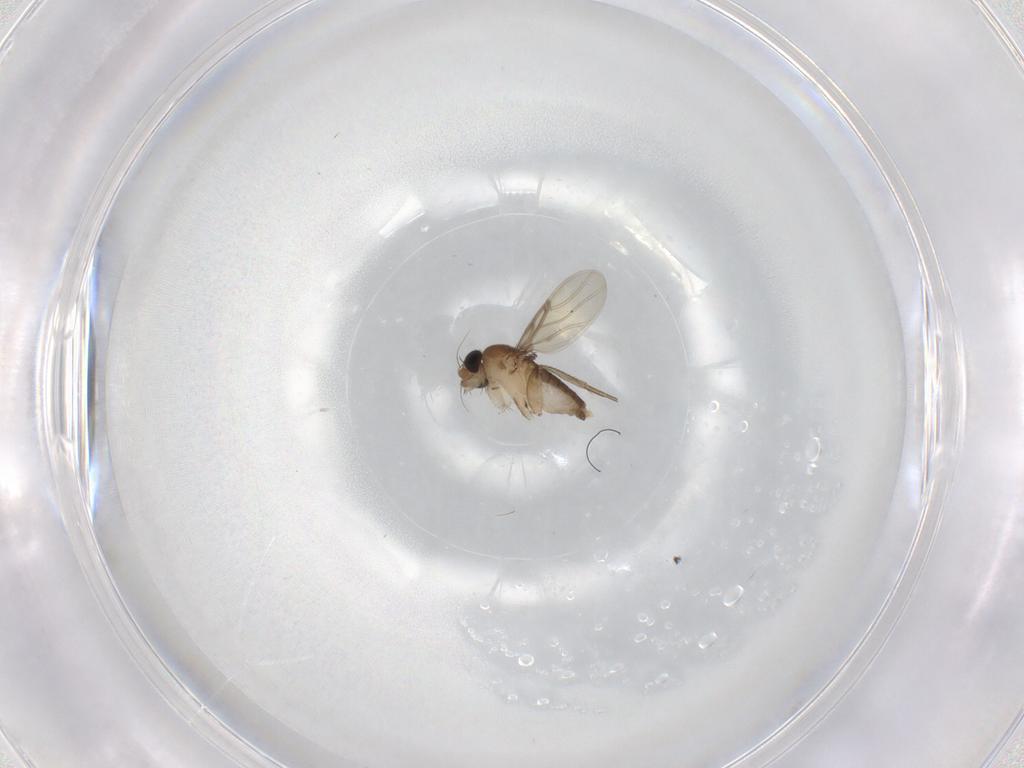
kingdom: Animalia
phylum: Arthropoda
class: Insecta
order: Diptera
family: Phoridae
